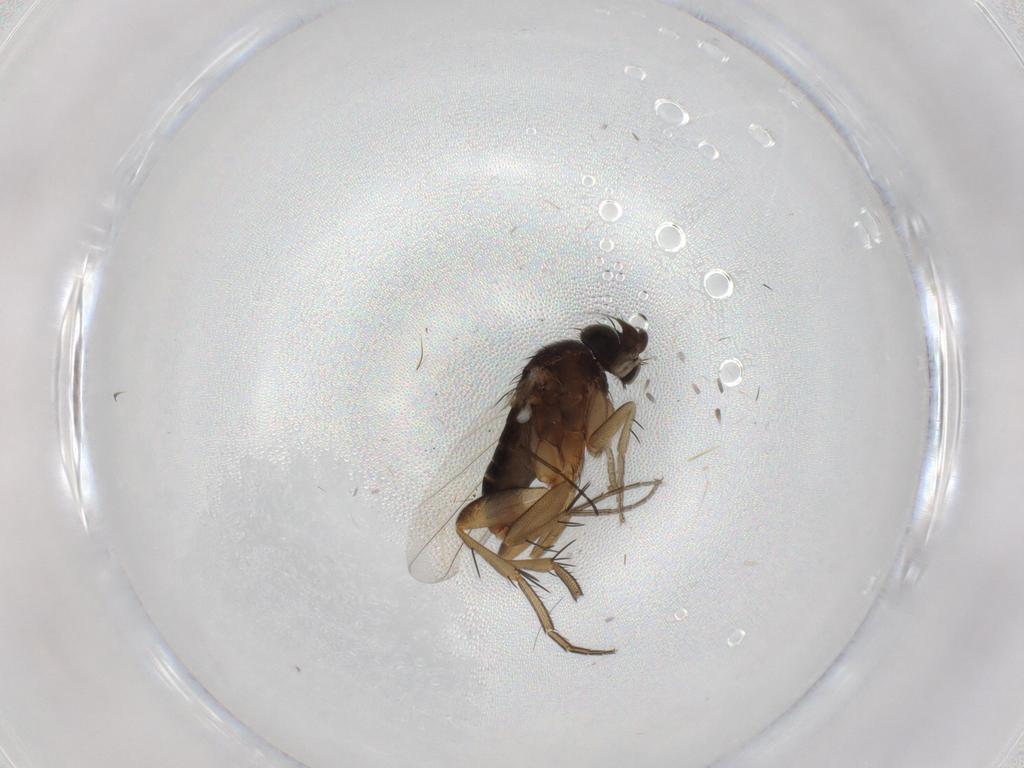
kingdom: Animalia
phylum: Arthropoda
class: Insecta
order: Diptera
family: Phoridae
